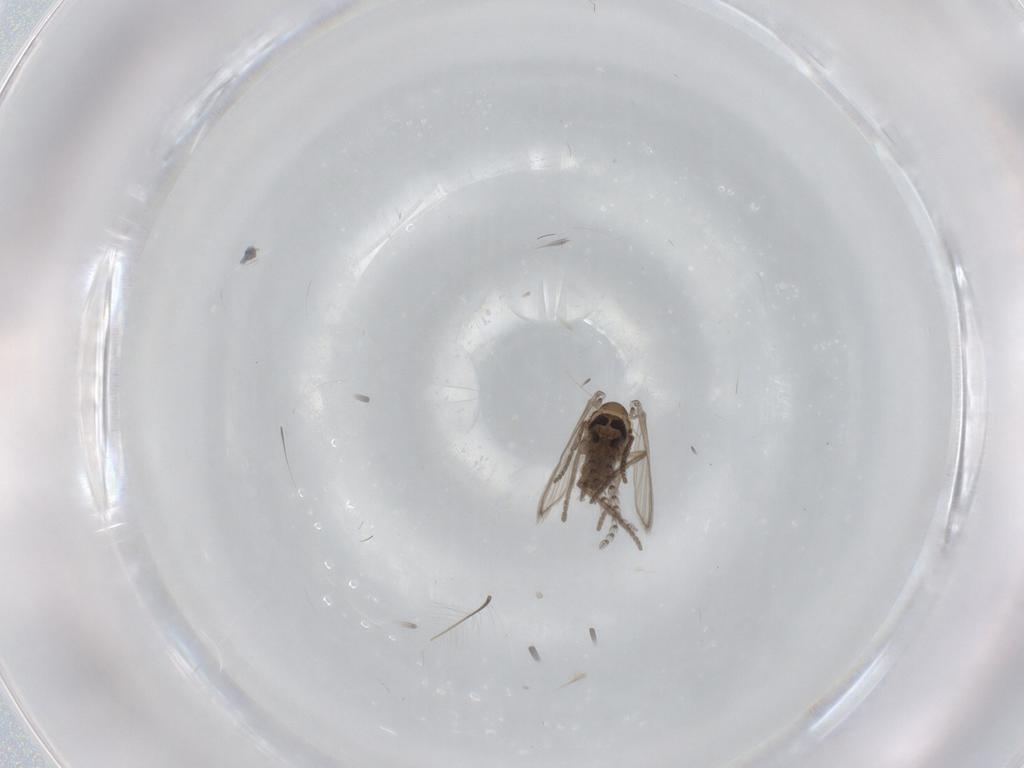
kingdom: Animalia
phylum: Arthropoda
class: Insecta
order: Diptera
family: Psychodidae
